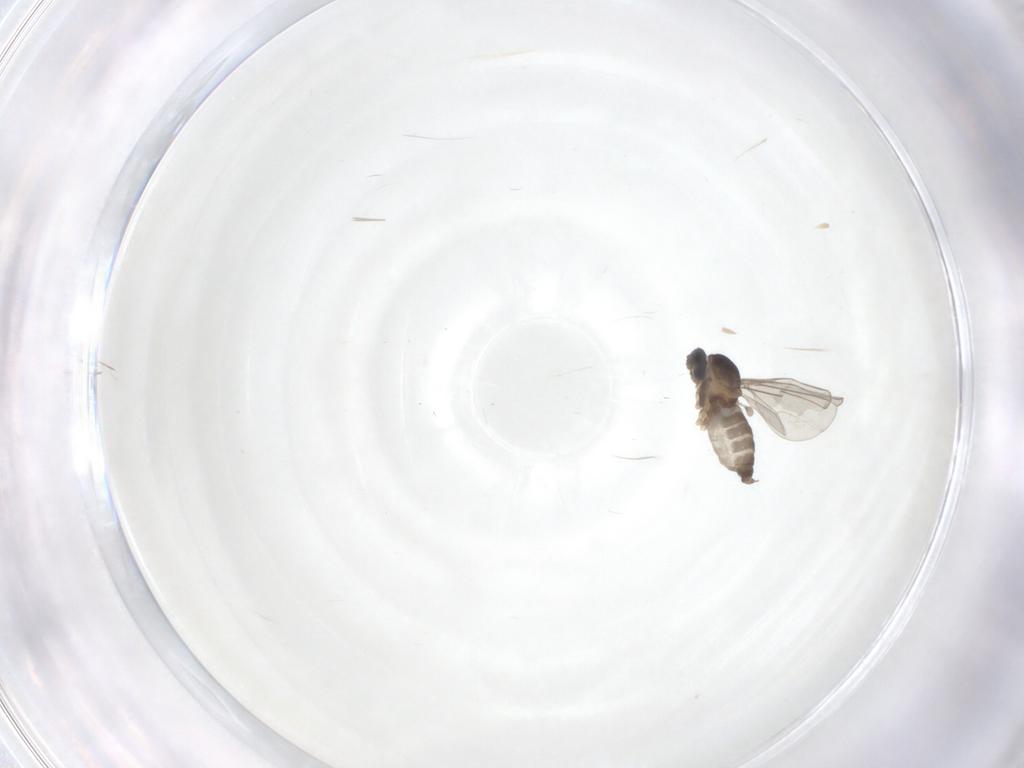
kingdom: Animalia
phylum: Arthropoda
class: Insecta
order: Diptera
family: Cecidomyiidae
